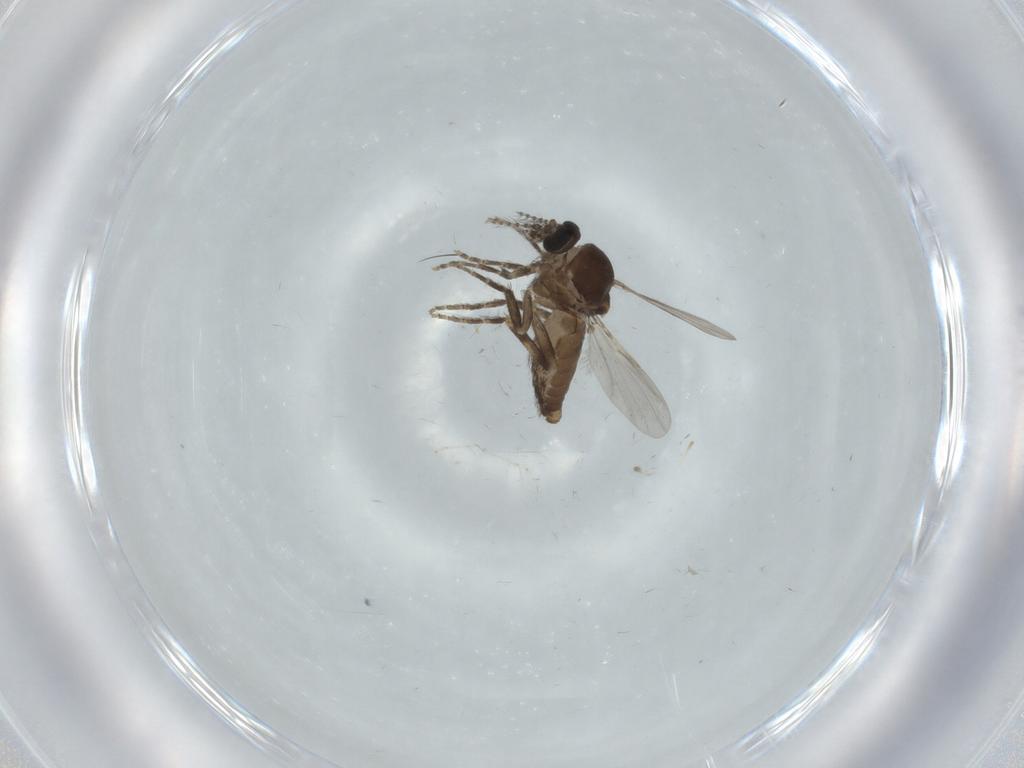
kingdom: Animalia
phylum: Arthropoda
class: Insecta
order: Diptera
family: Ceratopogonidae
